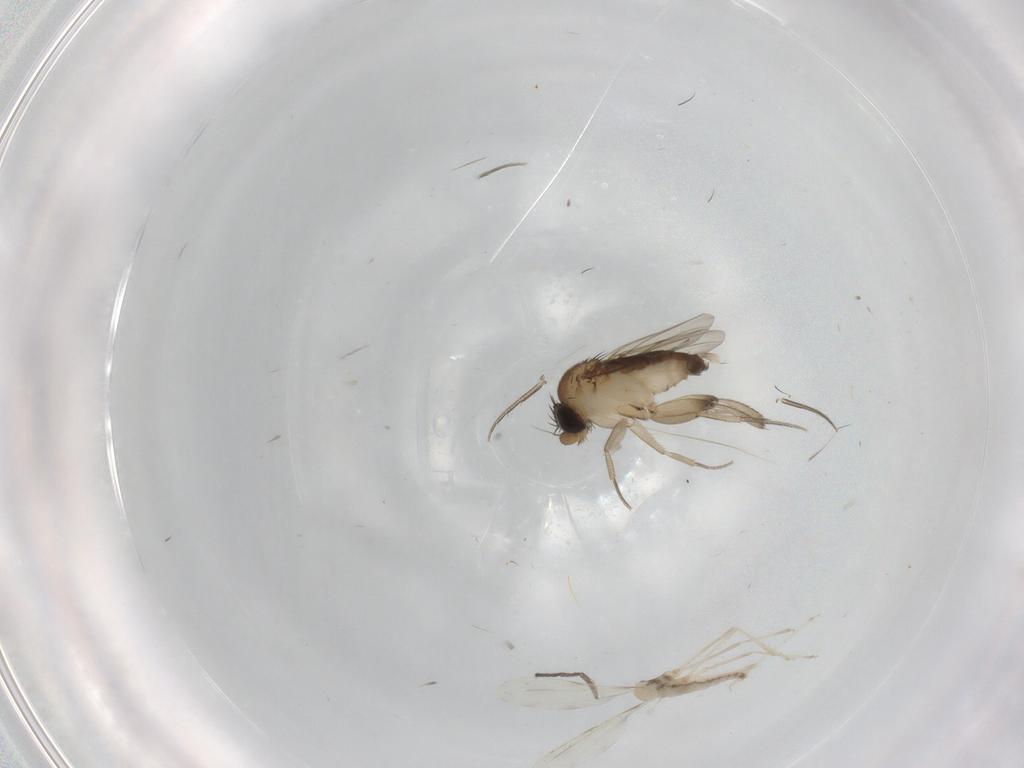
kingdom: Animalia
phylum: Arthropoda
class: Insecta
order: Diptera
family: Phoridae
